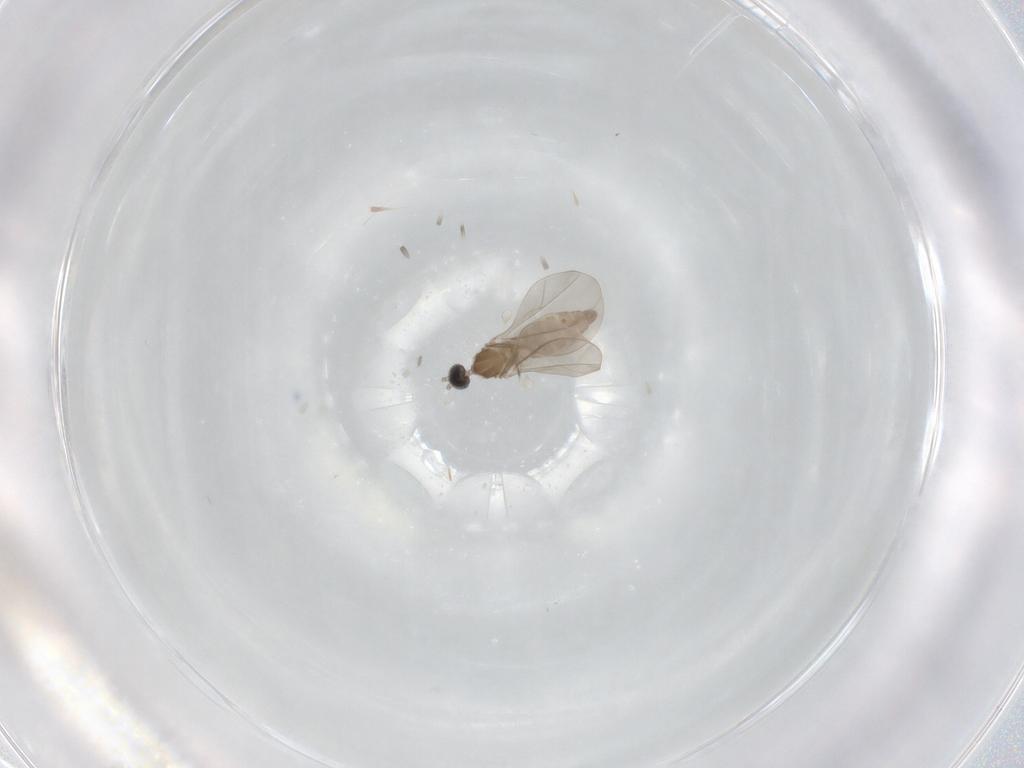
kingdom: Animalia
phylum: Arthropoda
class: Insecta
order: Diptera
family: Cecidomyiidae
